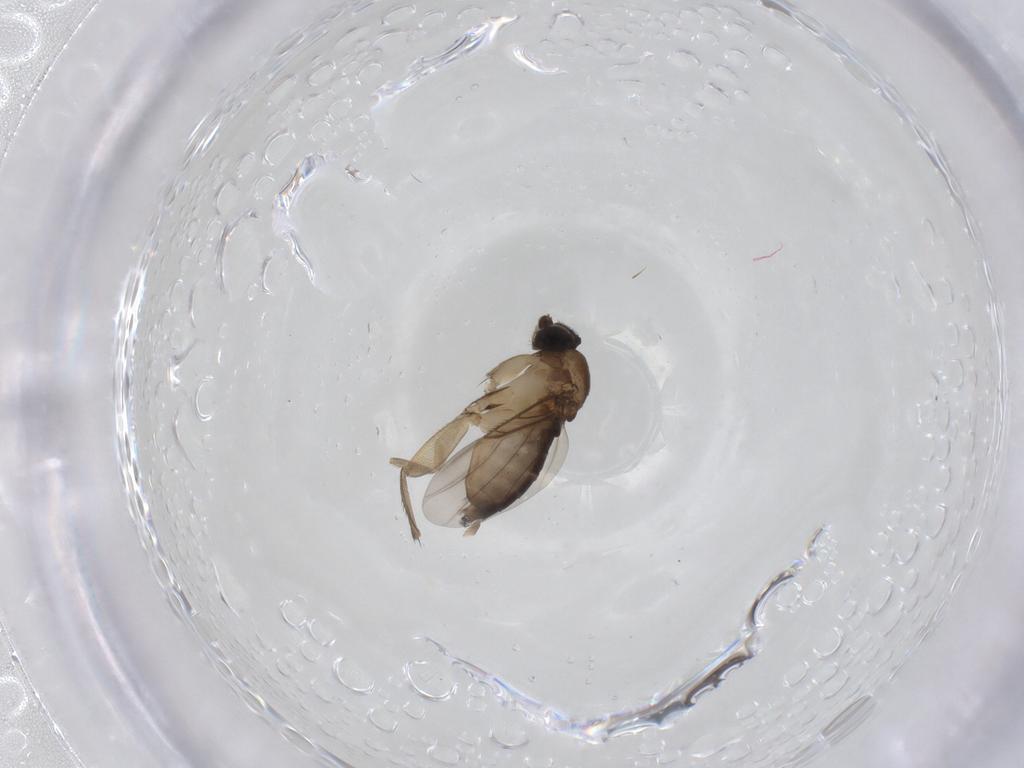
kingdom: Animalia
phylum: Arthropoda
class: Insecta
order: Diptera
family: Phoridae
